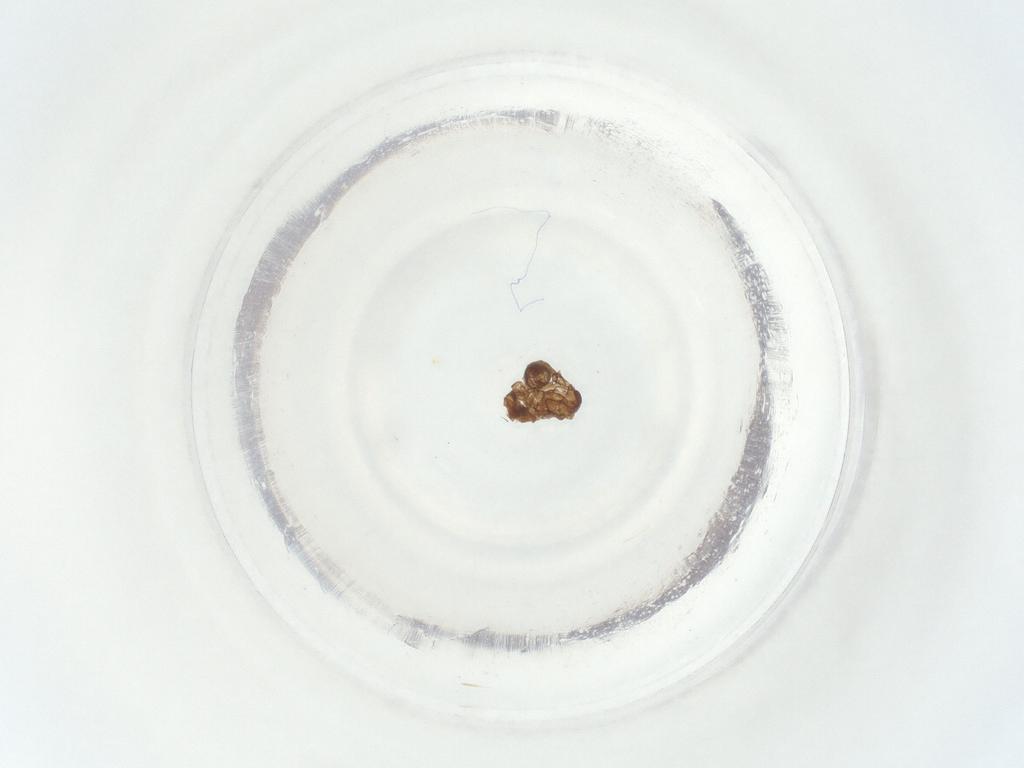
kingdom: Animalia
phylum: Arthropoda
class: Insecta
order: Diptera
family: Sciaridae
